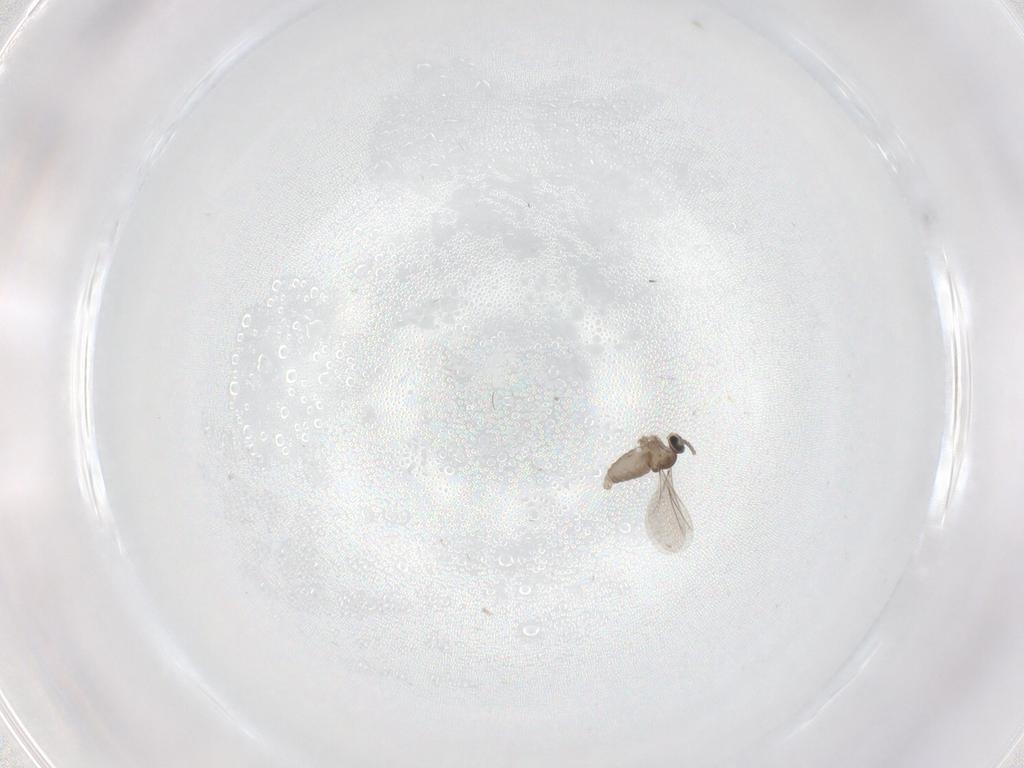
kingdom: Animalia
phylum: Arthropoda
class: Insecta
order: Diptera
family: Cecidomyiidae
